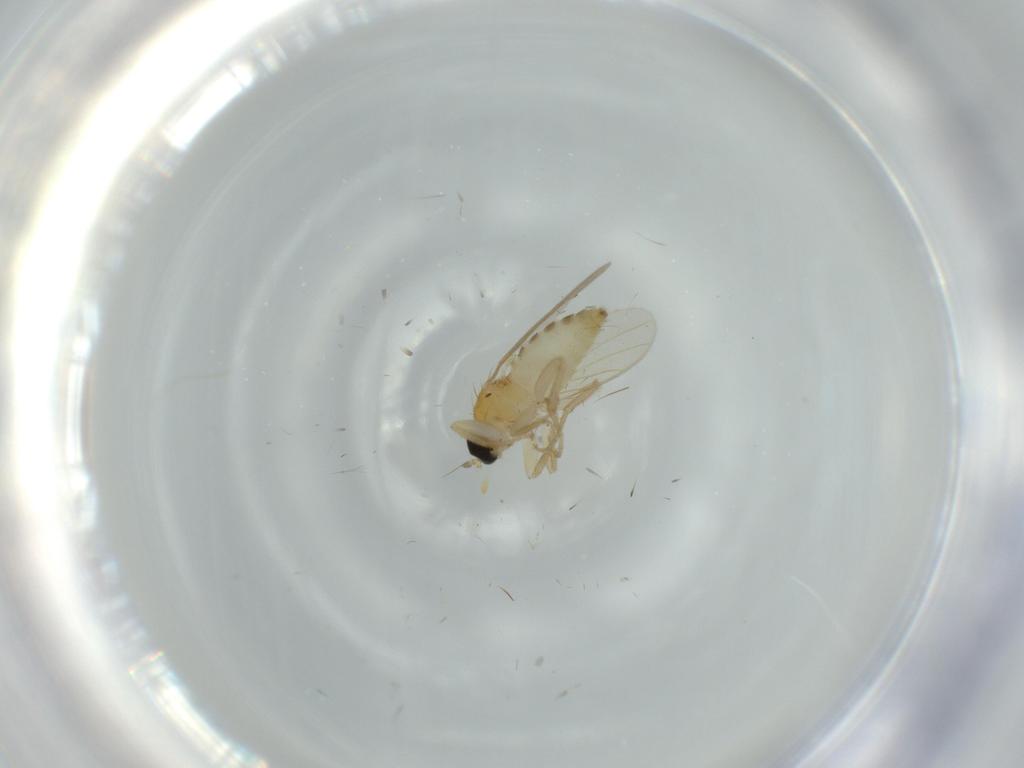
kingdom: Animalia
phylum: Arthropoda
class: Insecta
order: Diptera
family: Hybotidae
